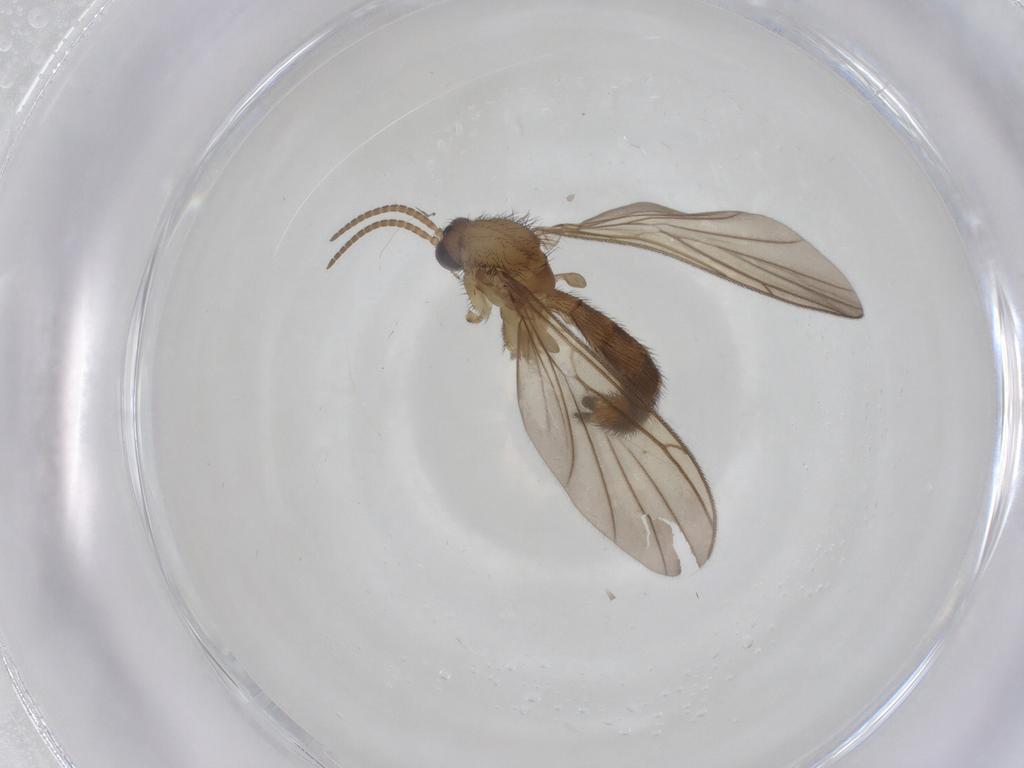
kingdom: Animalia
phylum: Arthropoda
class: Insecta
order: Diptera
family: Keroplatidae
